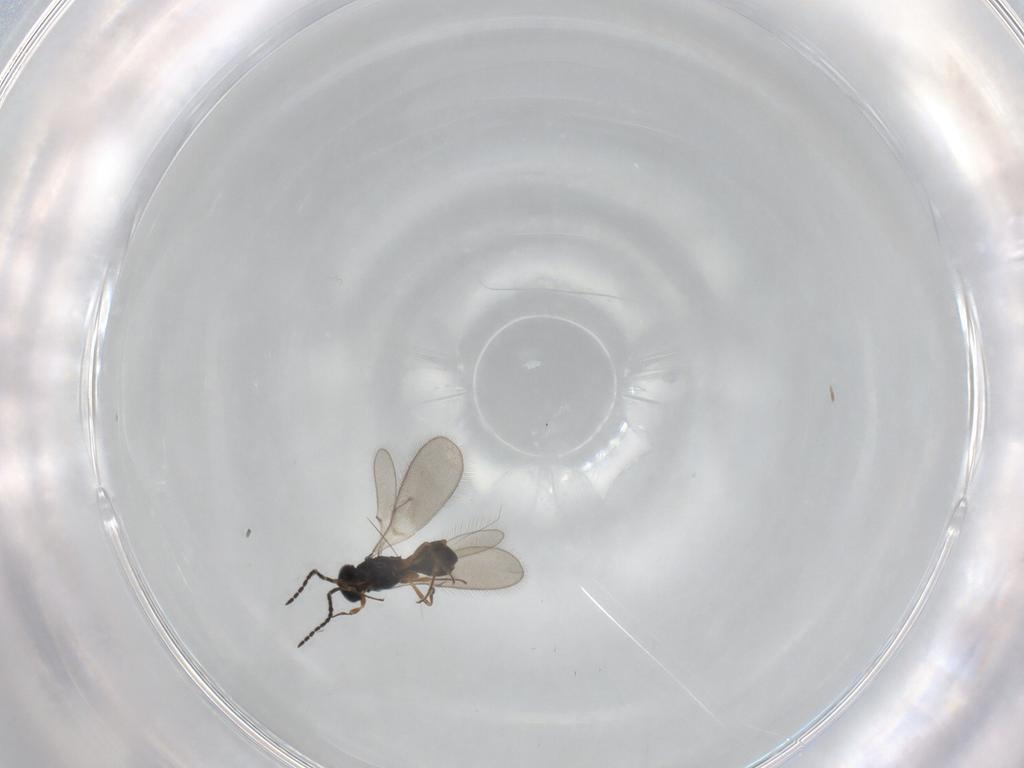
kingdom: Animalia
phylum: Arthropoda
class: Insecta
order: Hymenoptera
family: Scelionidae
